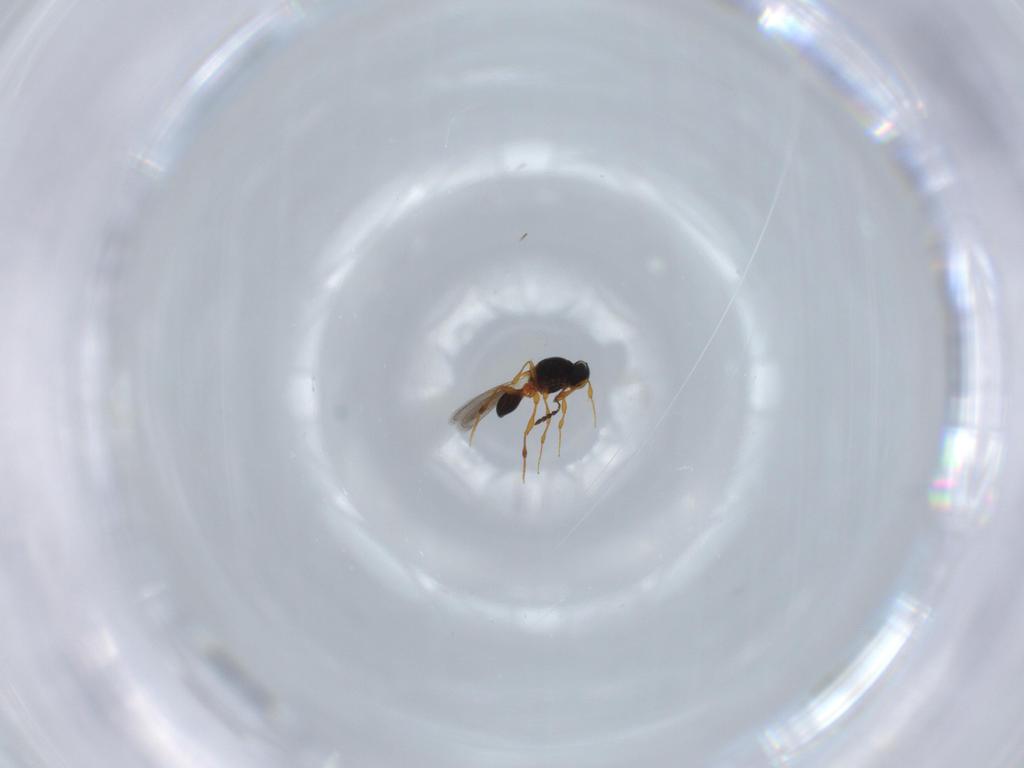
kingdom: Animalia
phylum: Arthropoda
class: Insecta
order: Hymenoptera
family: Platygastridae
